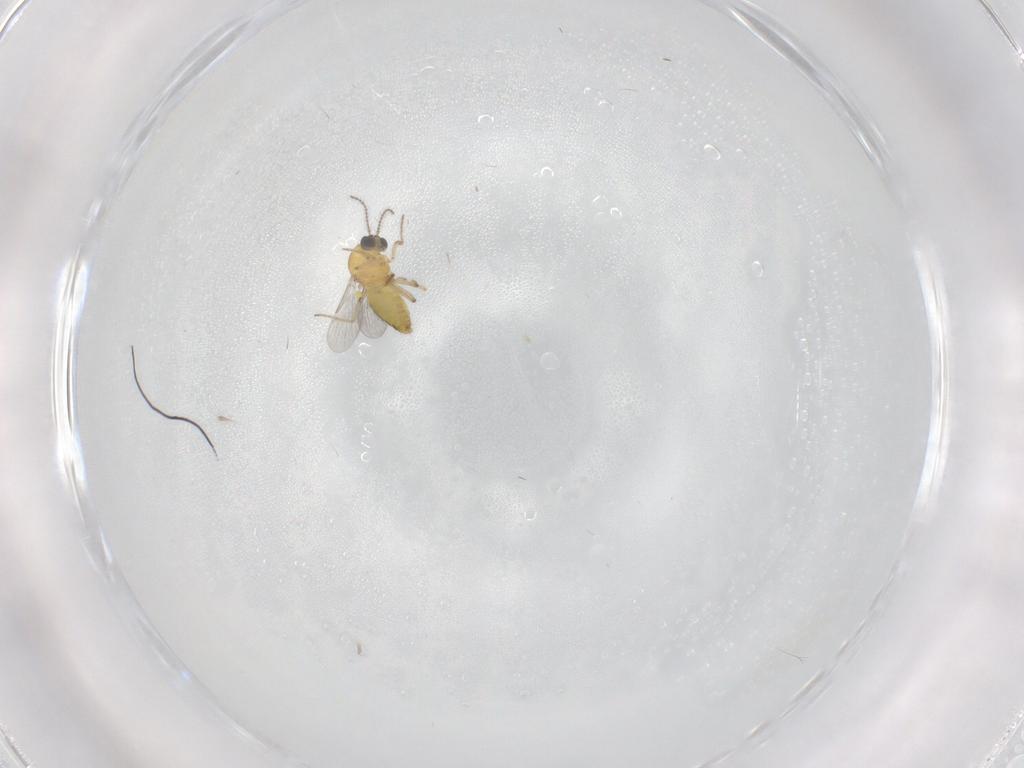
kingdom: Animalia
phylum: Arthropoda
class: Insecta
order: Diptera
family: Ceratopogonidae
